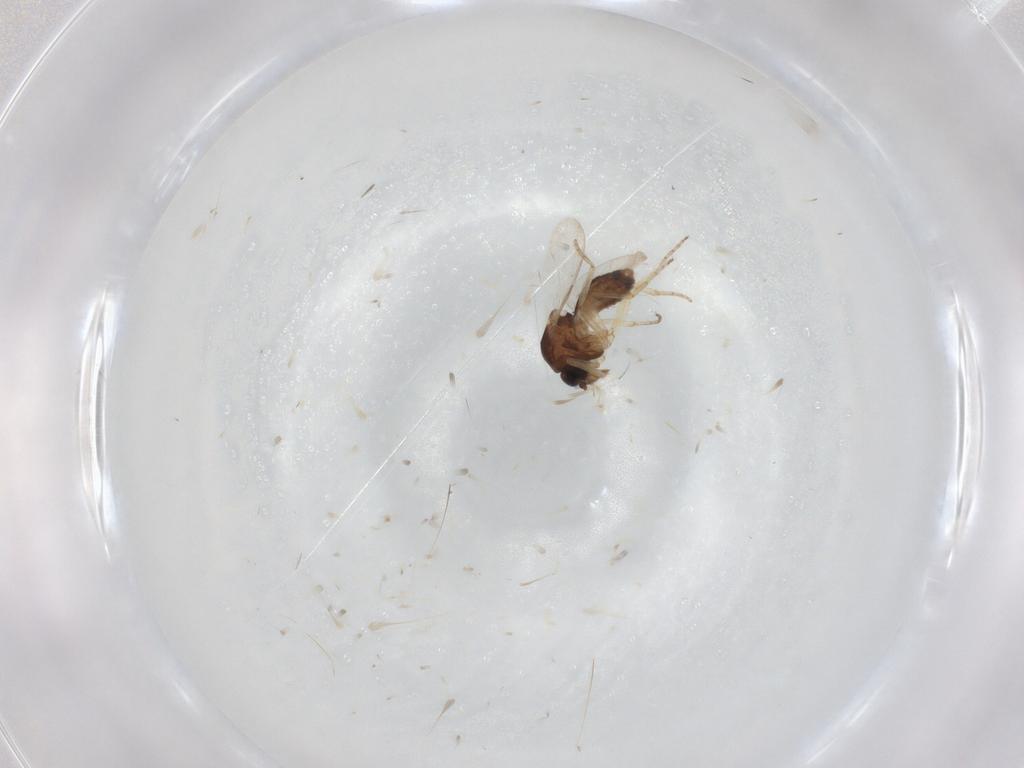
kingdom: Animalia
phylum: Arthropoda
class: Insecta
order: Diptera
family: Ceratopogonidae
